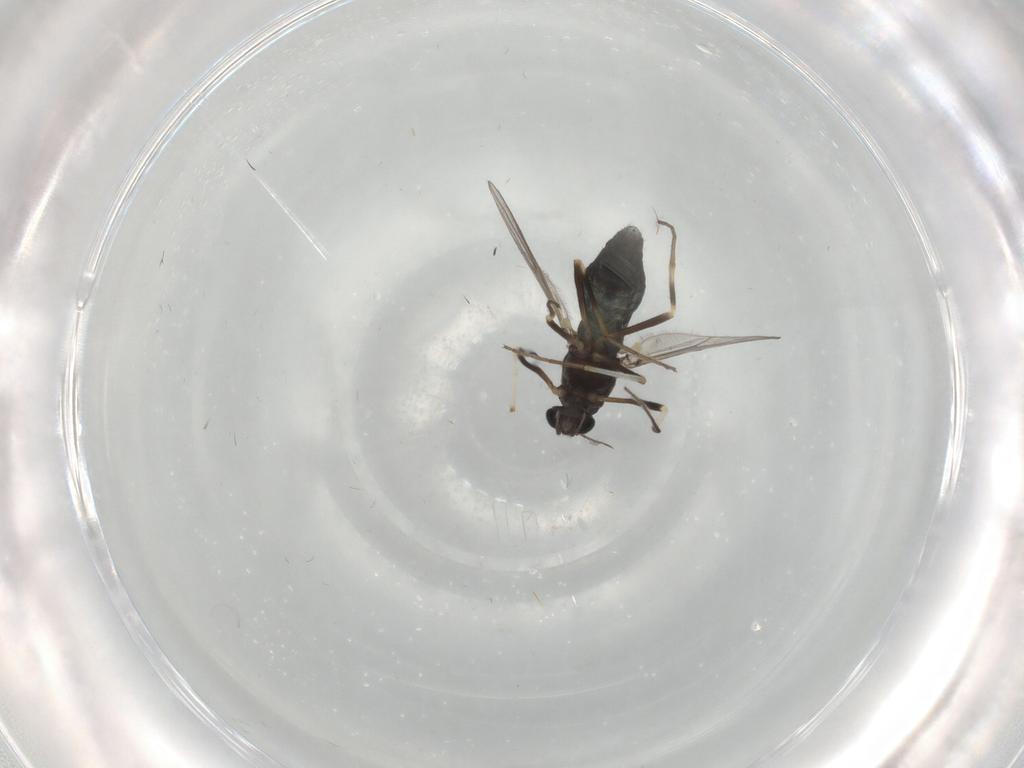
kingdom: Animalia
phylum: Arthropoda
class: Insecta
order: Diptera
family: Chironomidae
